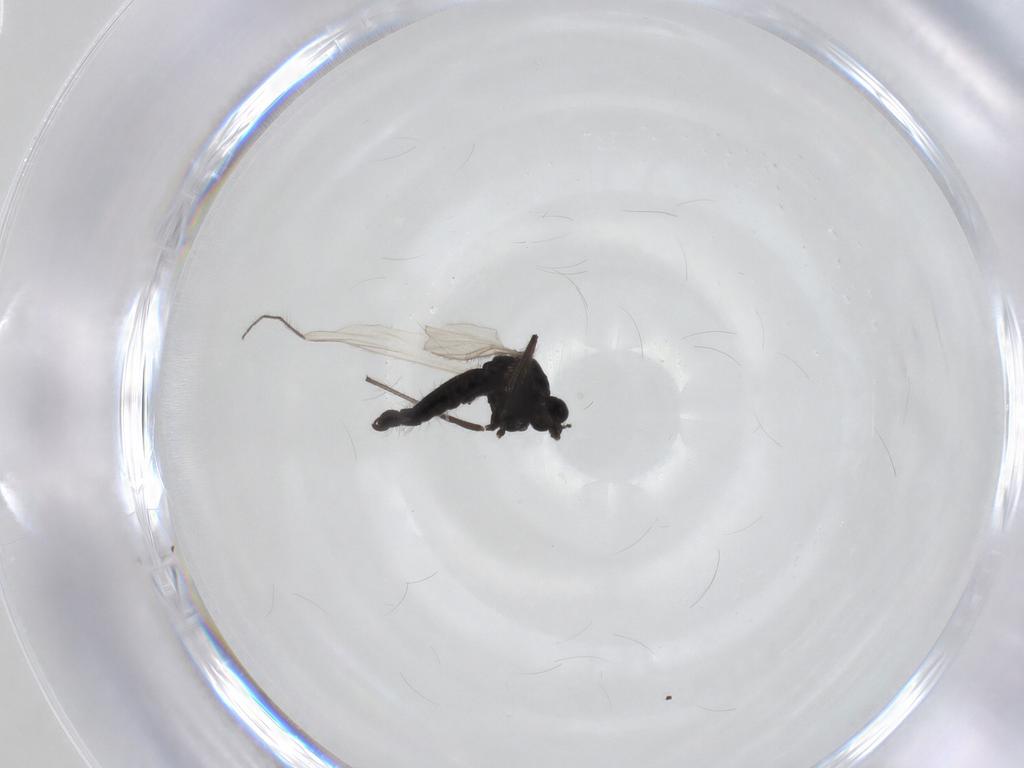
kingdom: Animalia
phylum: Arthropoda
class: Insecta
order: Diptera
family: Chironomidae
